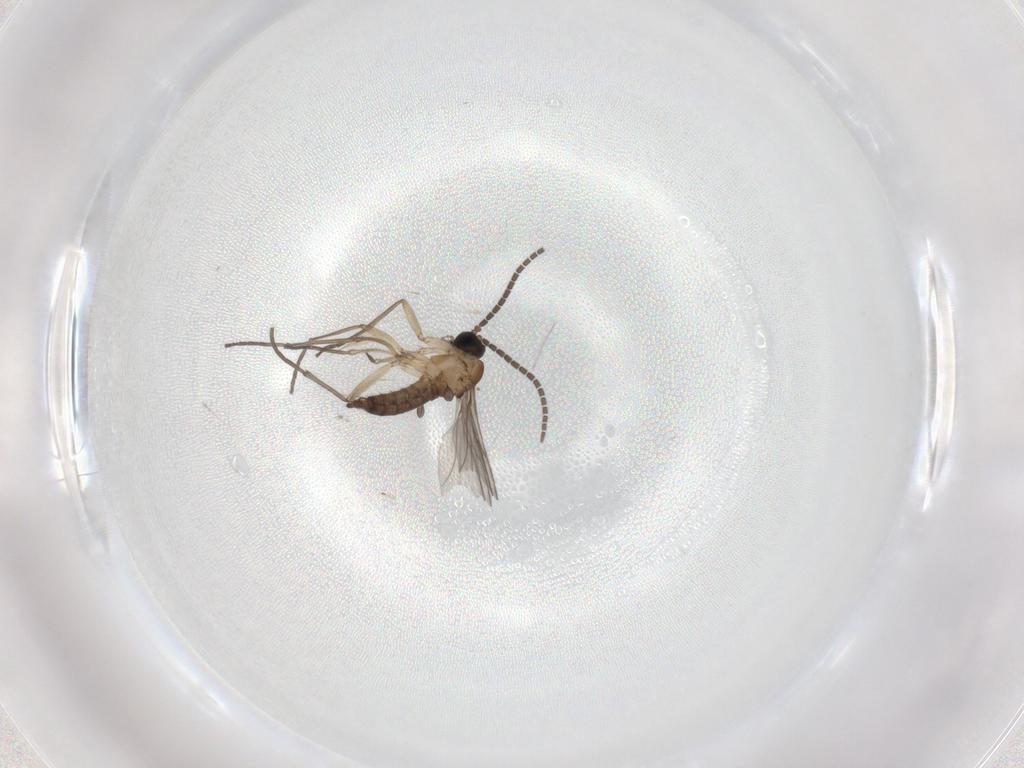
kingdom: Animalia
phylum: Arthropoda
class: Insecta
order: Diptera
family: Sciaridae
